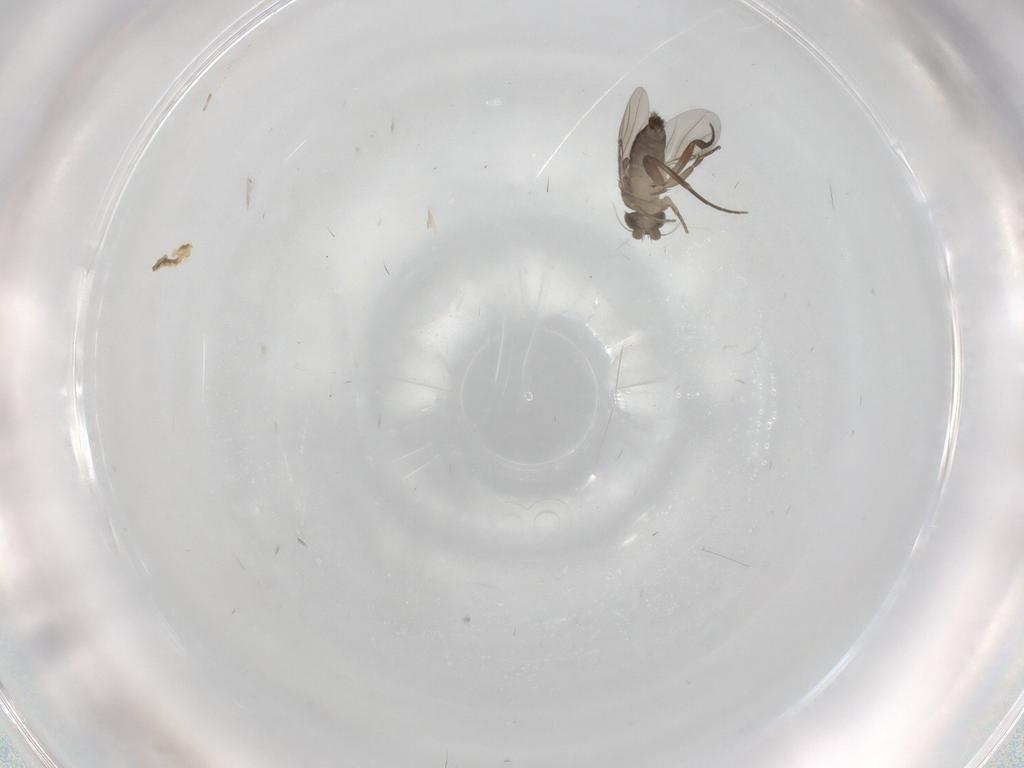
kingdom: Animalia
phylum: Arthropoda
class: Insecta
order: Diptera
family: Phoridae
